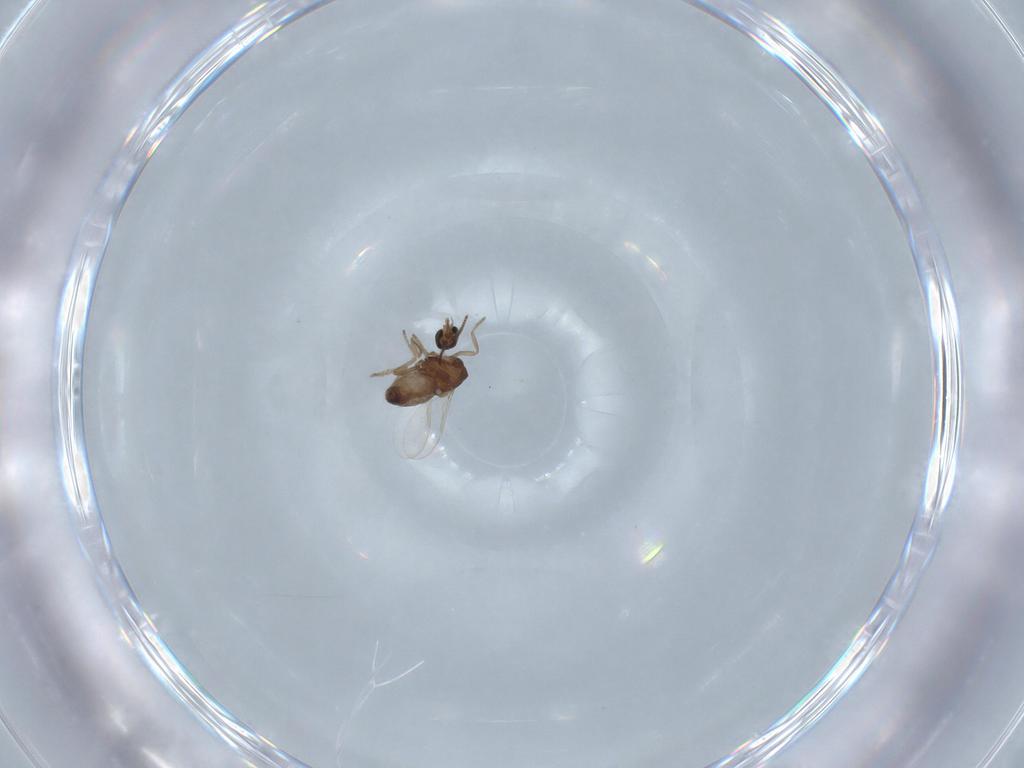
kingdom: Animalia
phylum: Arthropoda
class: Insecta
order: Diptera
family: Ceratopogonidae
